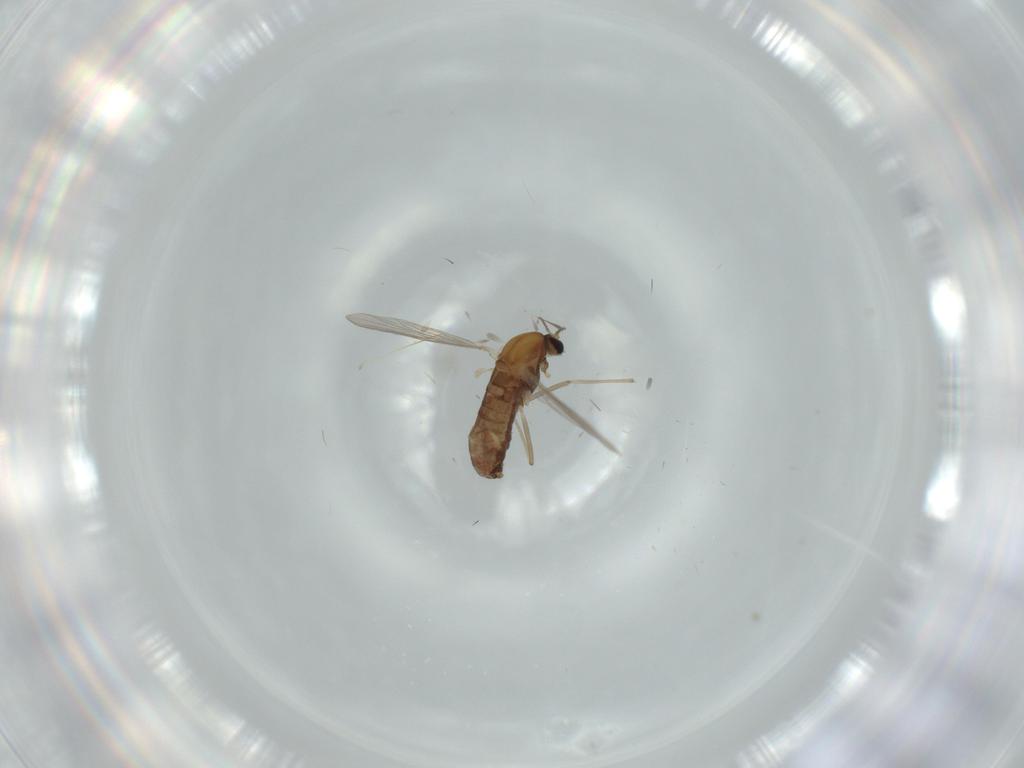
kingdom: Animalia
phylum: Arthropoda
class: Insecta
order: Diptera
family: Chironomidae
